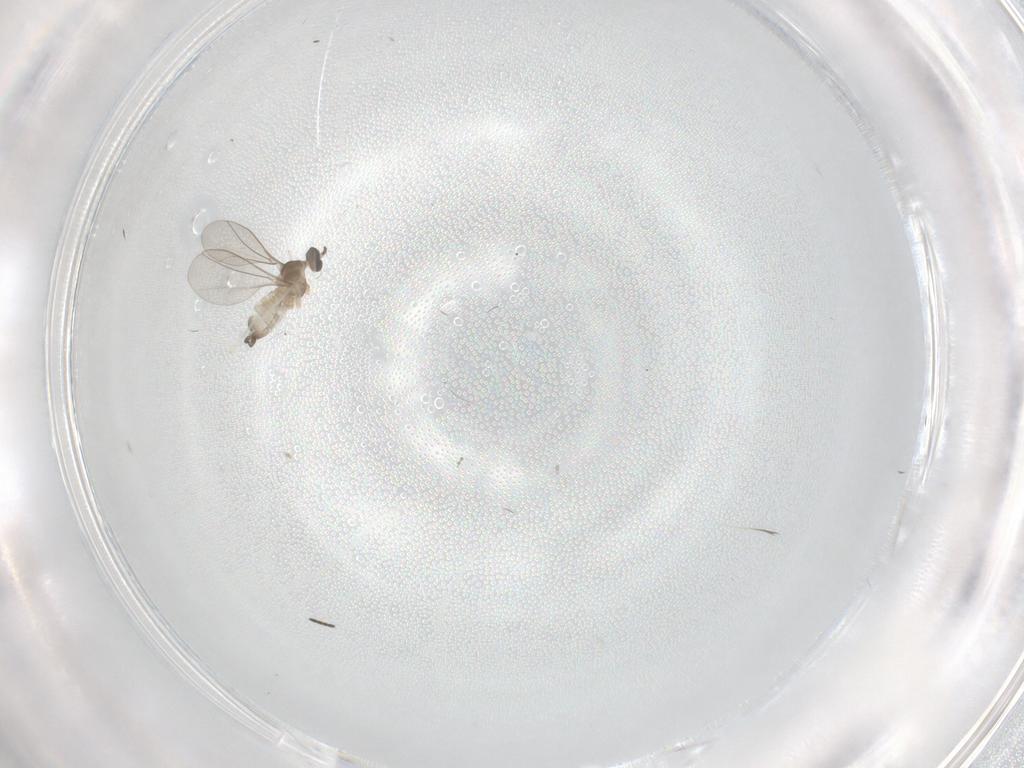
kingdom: Animalia
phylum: Arthropoda
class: Insecta
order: Diptera
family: Cecidomyiidae
